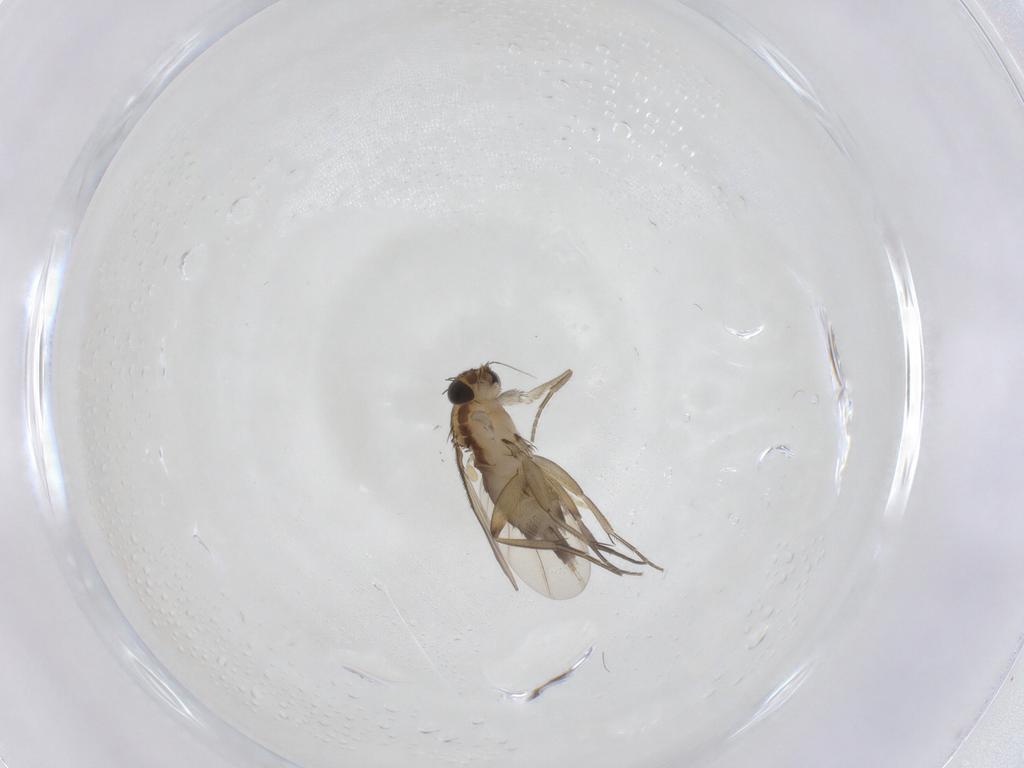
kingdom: Animalia
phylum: Arthropoda
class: Insecta
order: Diptera
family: Phoridae
